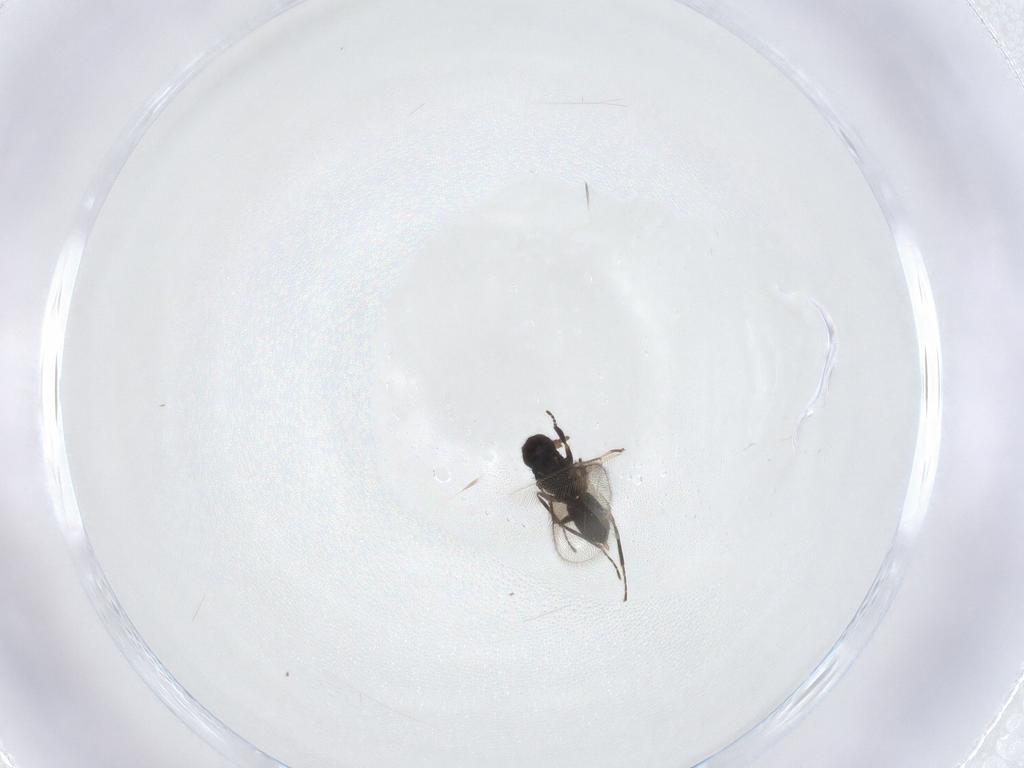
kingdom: Animalia
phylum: Arthropoda
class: Insecta
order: Hymenoptera
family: Eulophidae
